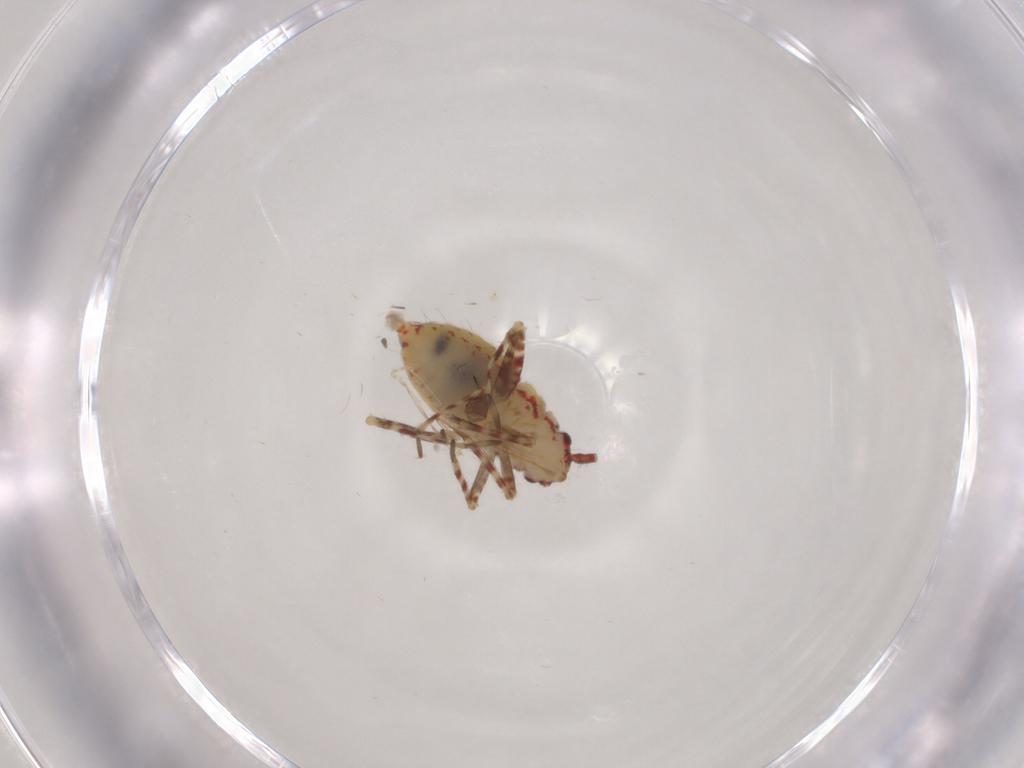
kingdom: Animalia
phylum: Arthropoda
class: Insecta
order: Hemiptera
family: Miridae
